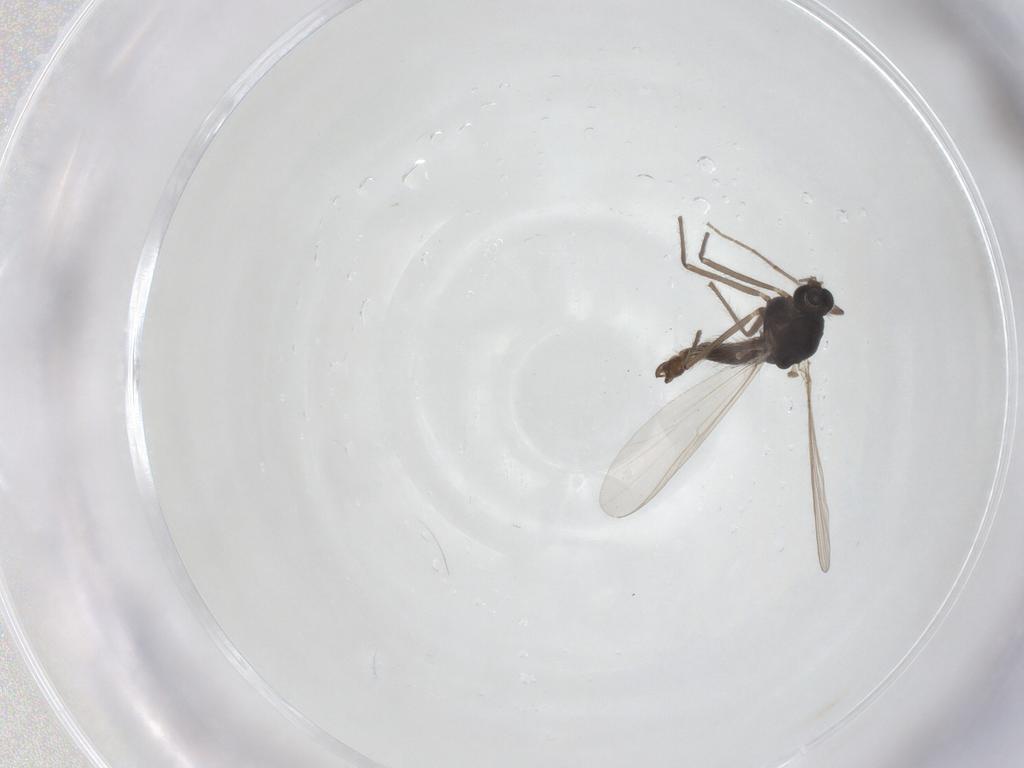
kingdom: Animalia
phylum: Arthropoda
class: Insecta
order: Diptera
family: Chironomidae
